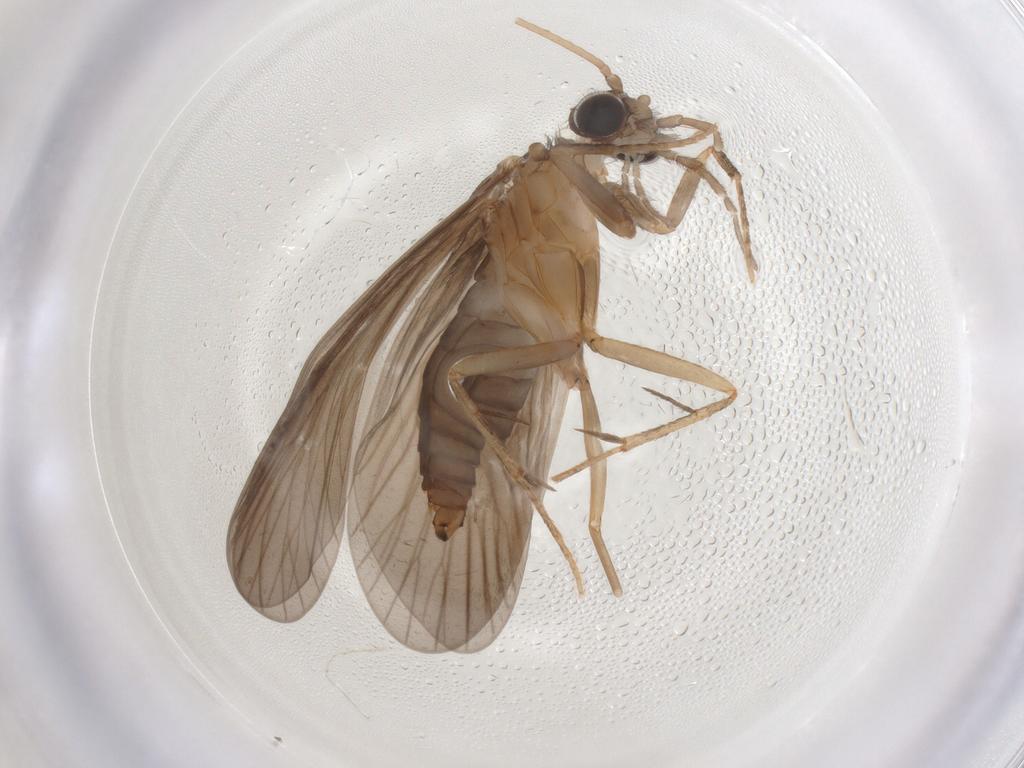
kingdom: Animalia
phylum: Arthropoda
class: Insecta
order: Trichoptera
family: Philopotamidae
